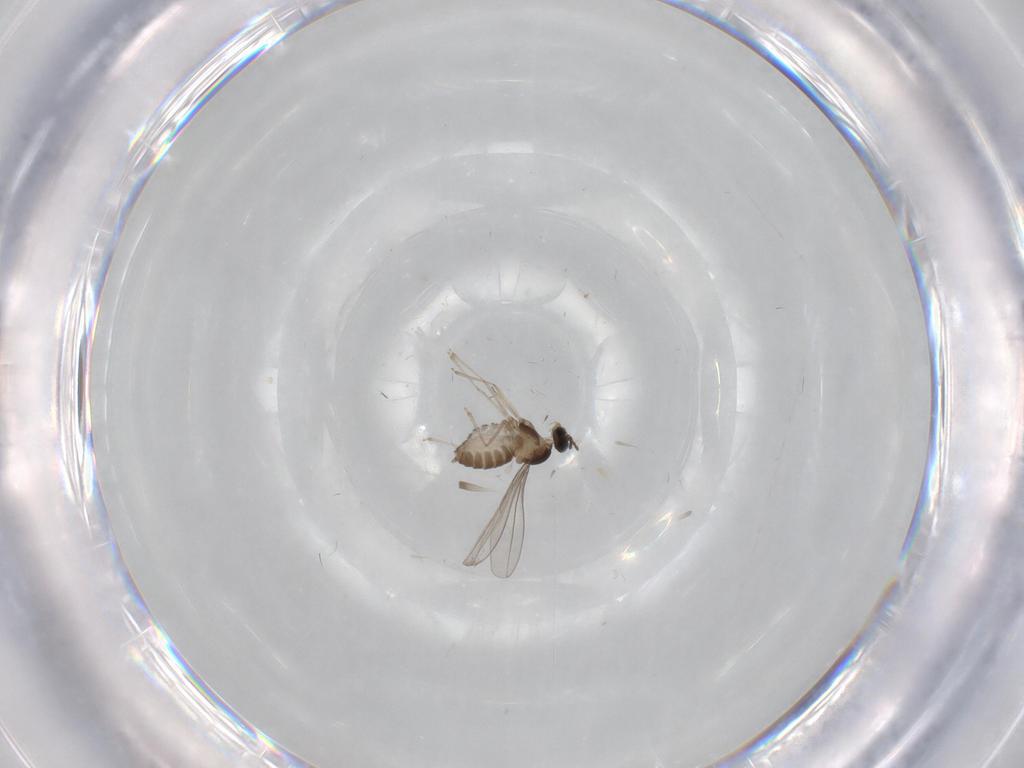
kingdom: Animalia
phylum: Arthropoda
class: Insecta
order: Diptera
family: Cecidomyiidae
